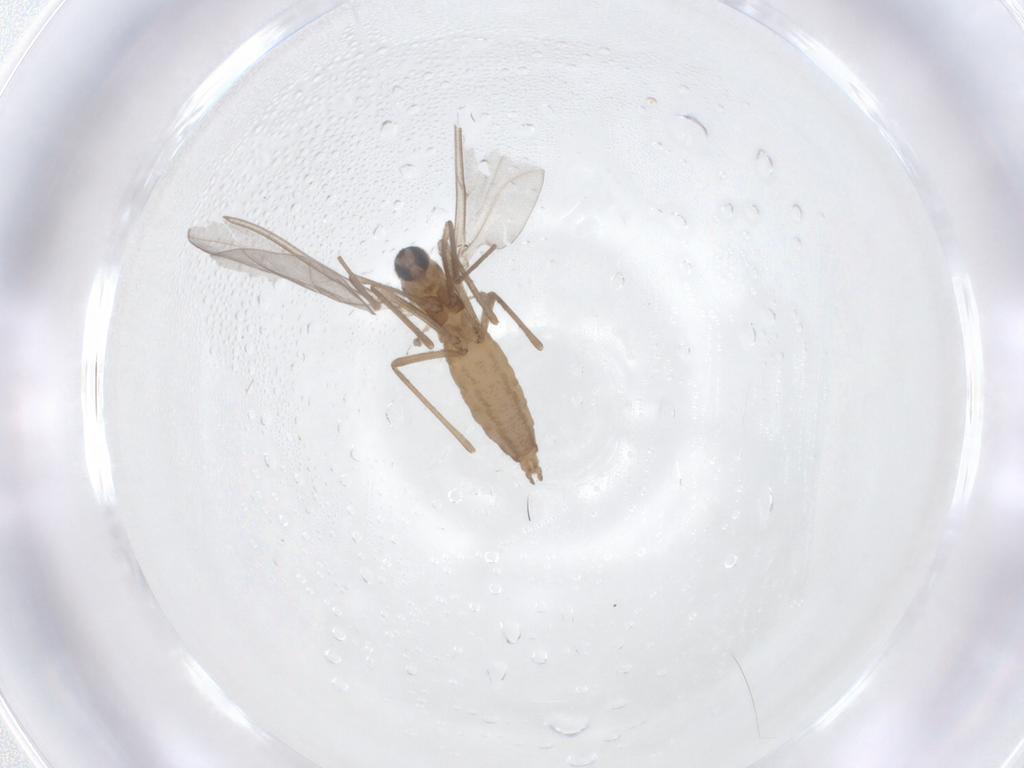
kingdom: Animalia
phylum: Arthropoda
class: Insecta
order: Diptera
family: Cecidomyiidae
